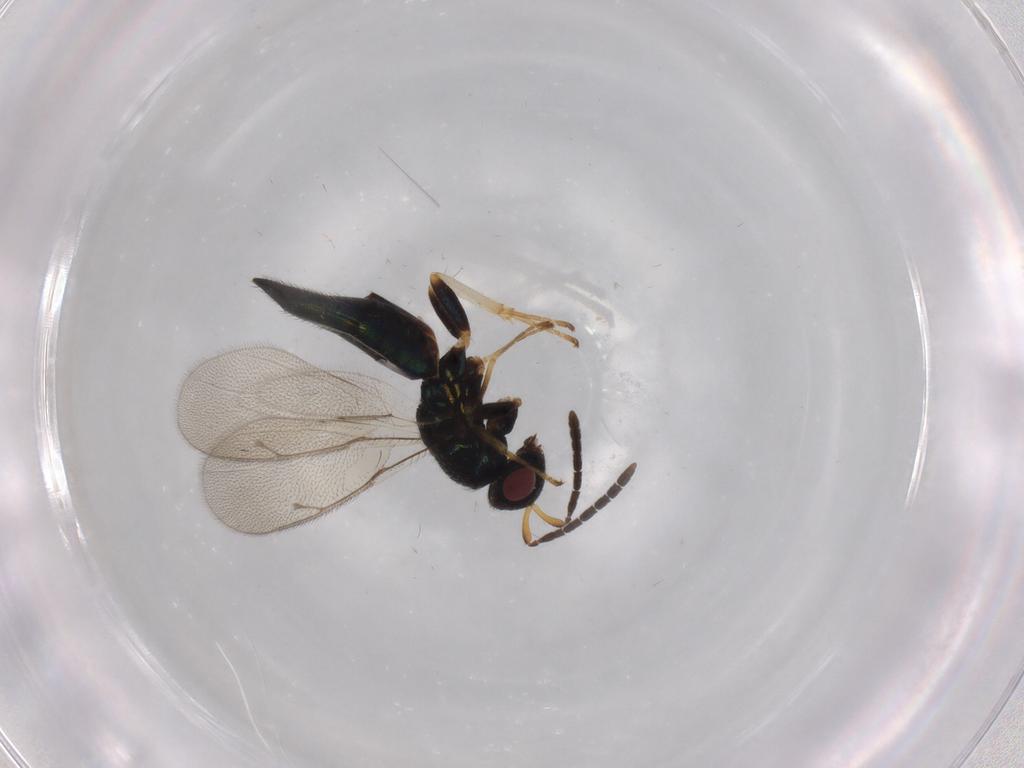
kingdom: Animalia
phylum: Arthropoda
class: Insecta
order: Hymenoptera
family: Pteromalidae
